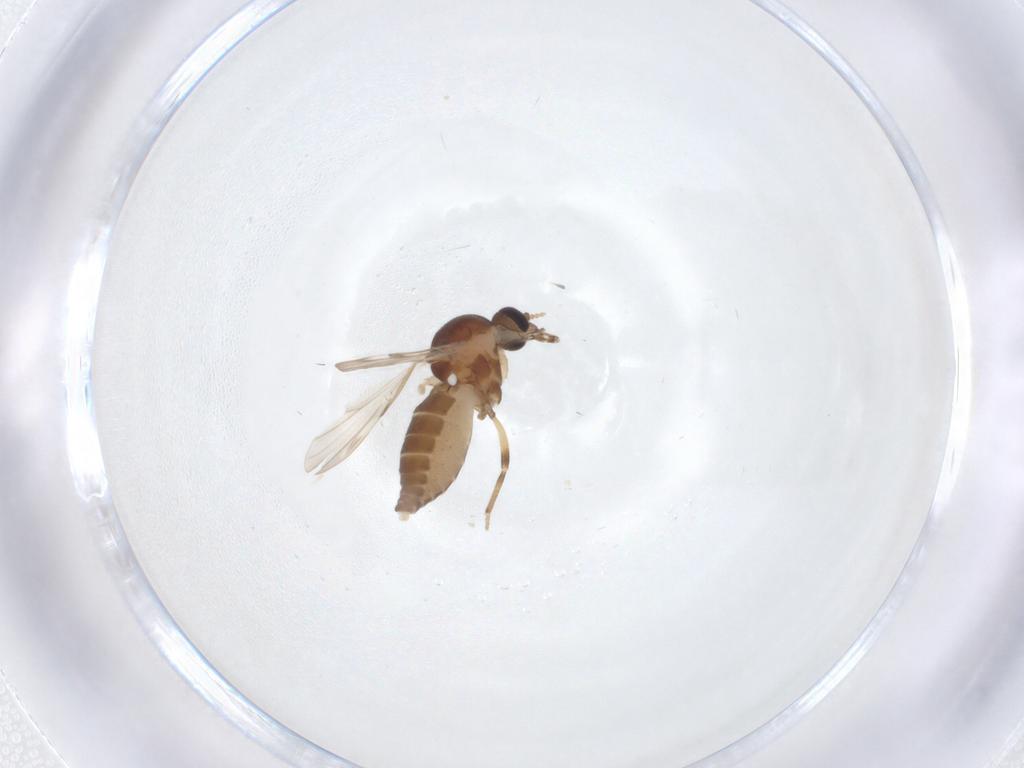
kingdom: Animalia
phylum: Arthropoda
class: Insecta
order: Diptera
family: Ceratopogonidae
